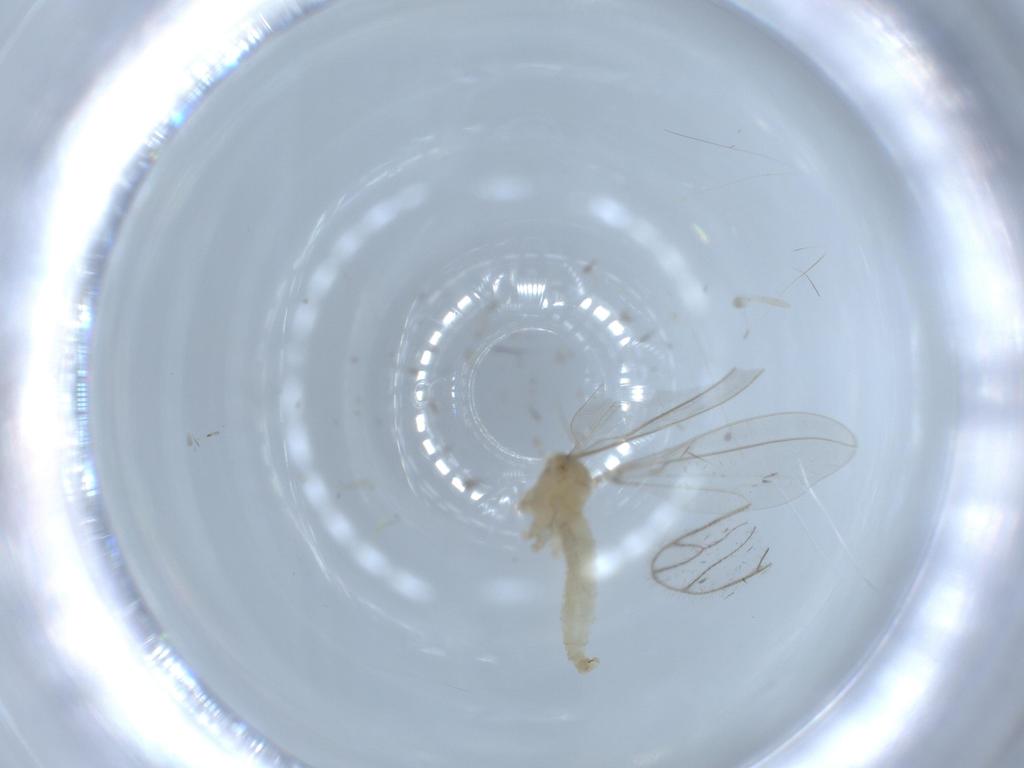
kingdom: Animalia
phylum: Arthropoda
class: Insecta
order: Diptera
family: Cecidomyiidae
